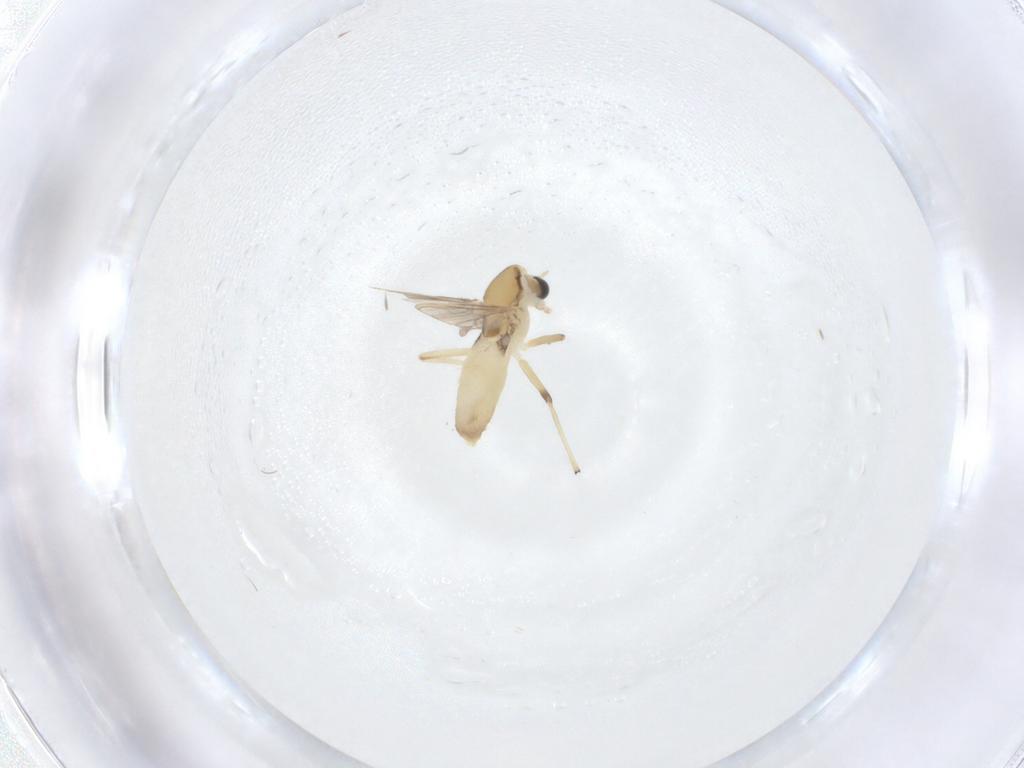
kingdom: Animalia
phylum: Arthropoda
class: Insecta
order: Diptera
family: Chironomidae
